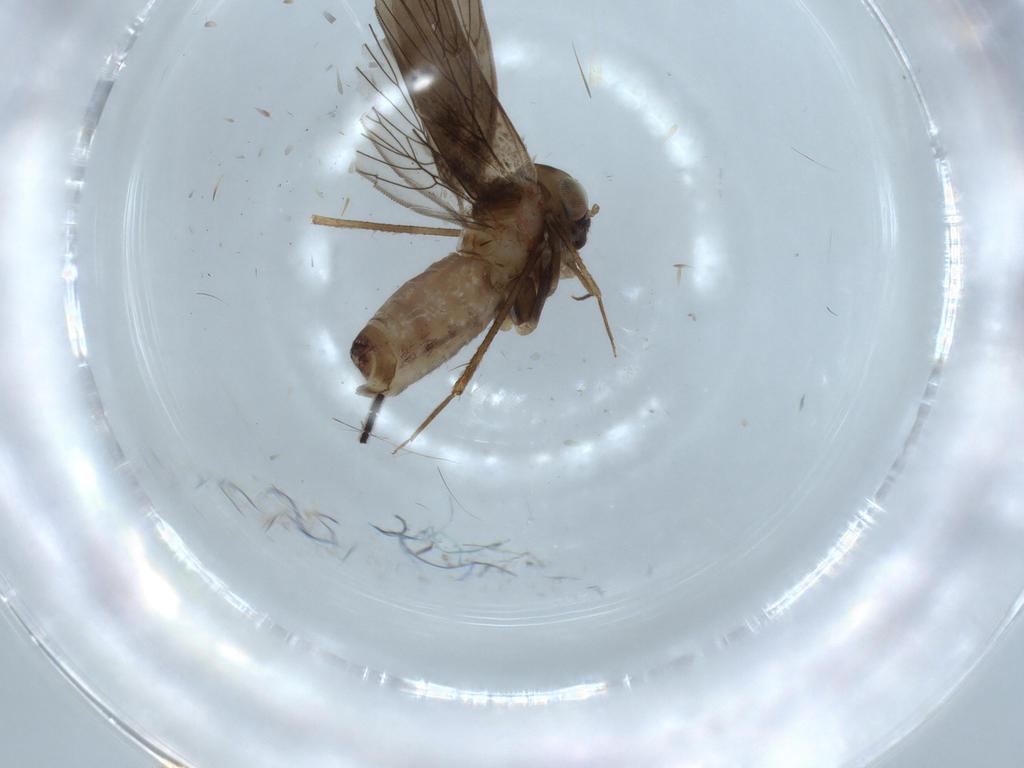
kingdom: Animalia
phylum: Arthropoda
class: Insecta
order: Psocodea
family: Lepidopsocidae
